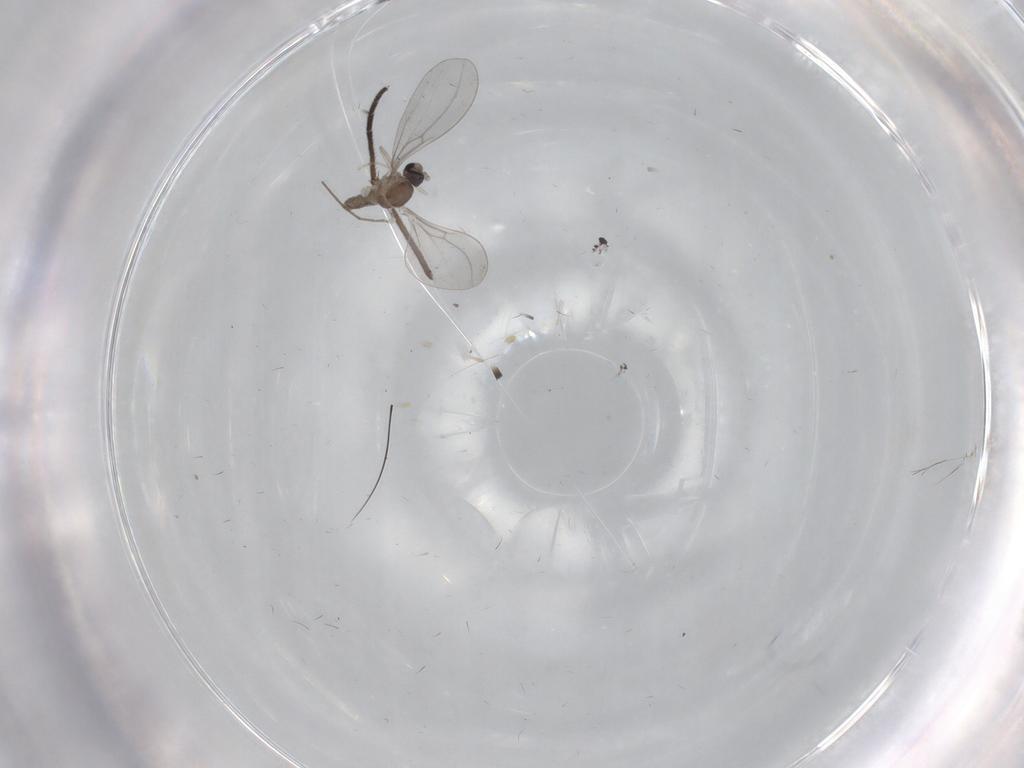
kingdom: Animalia
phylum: Arthropoda
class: Insecta
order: Diptera
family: Cecidomyiidae
